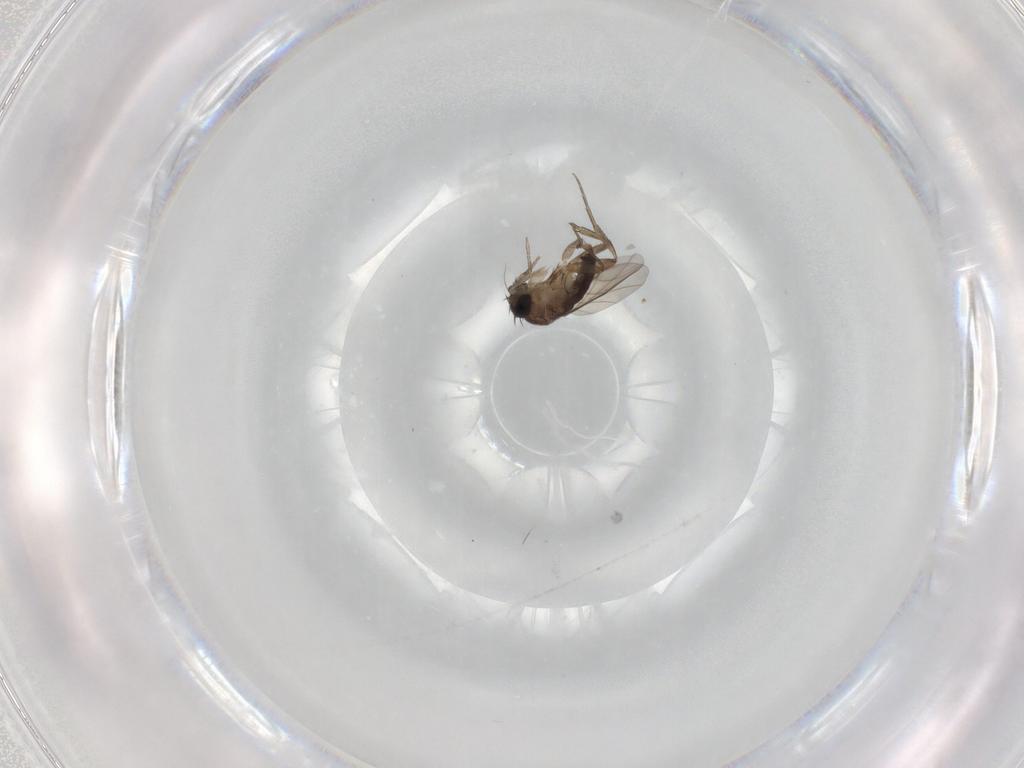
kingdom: Animalia
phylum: Arthropoda
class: Insecta
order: Diptera
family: Phoridae
